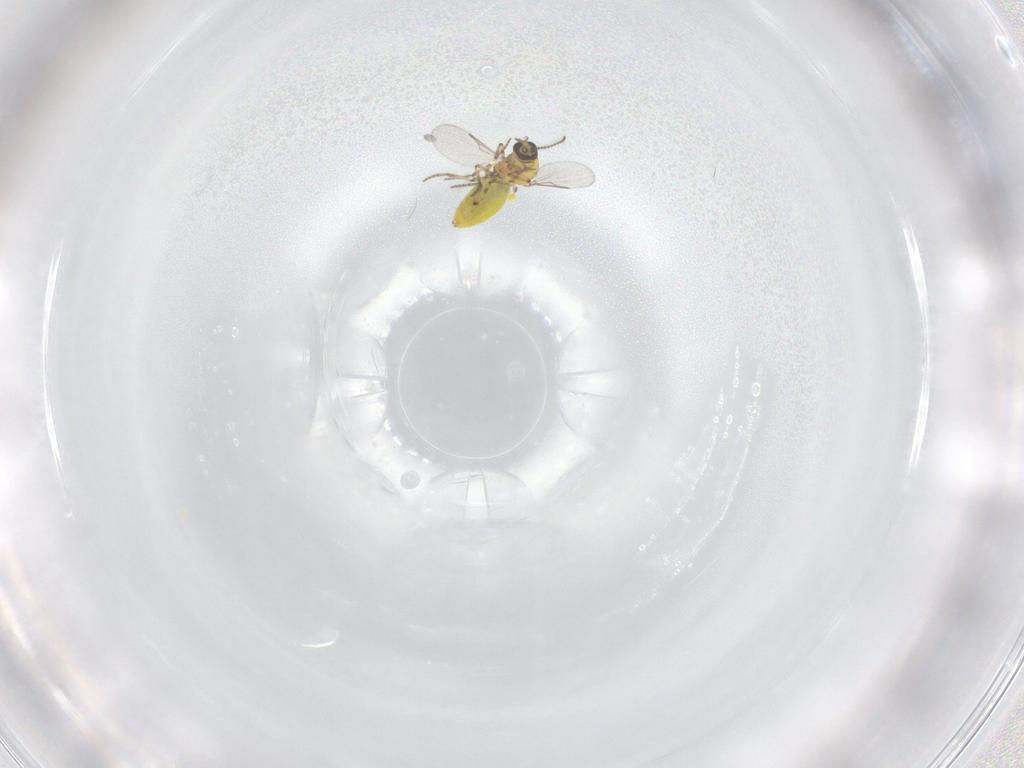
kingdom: Animalia
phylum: Arthropoda
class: Insecta
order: Diptera
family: Ceratopogonidae
